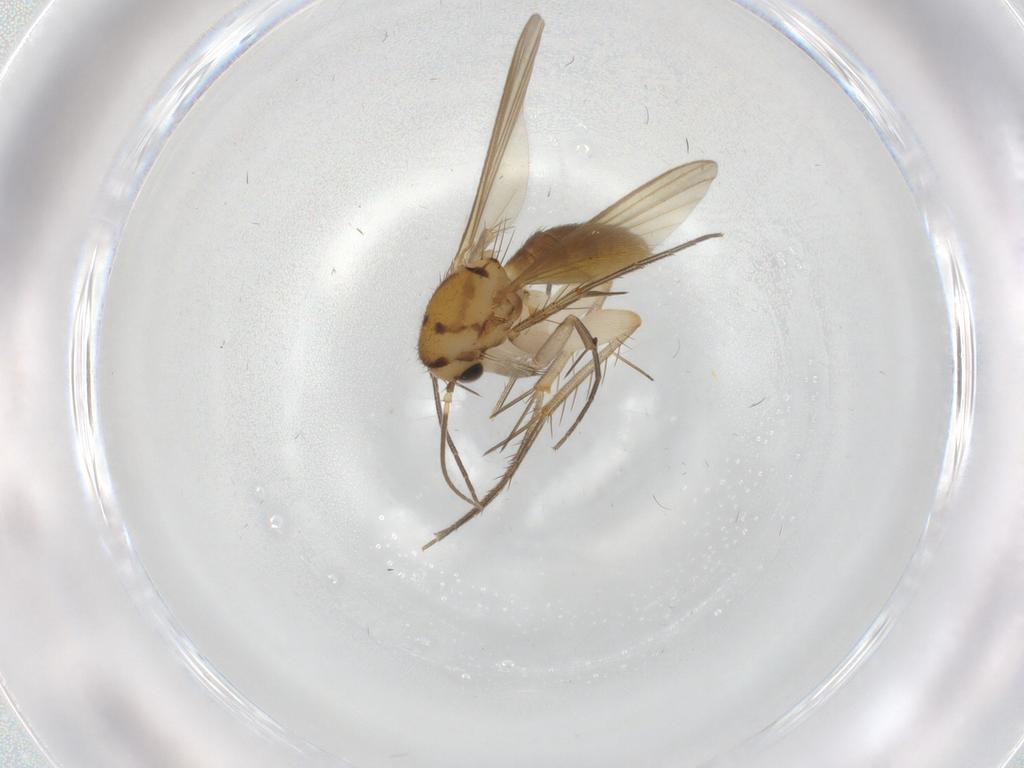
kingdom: Animalia
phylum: Arthropoda
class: Insecta
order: Diptera
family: Mycetophilidae
